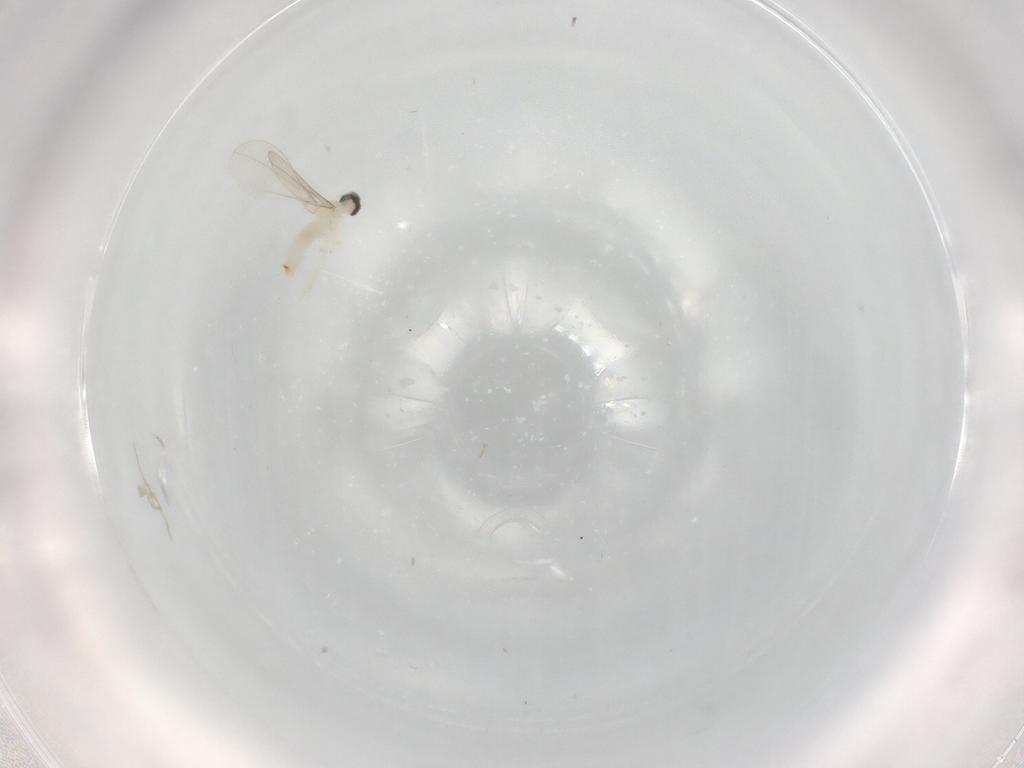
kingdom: Animalia
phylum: Arthropoda
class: Insecta
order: Diptera
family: Cecidomyiidae
